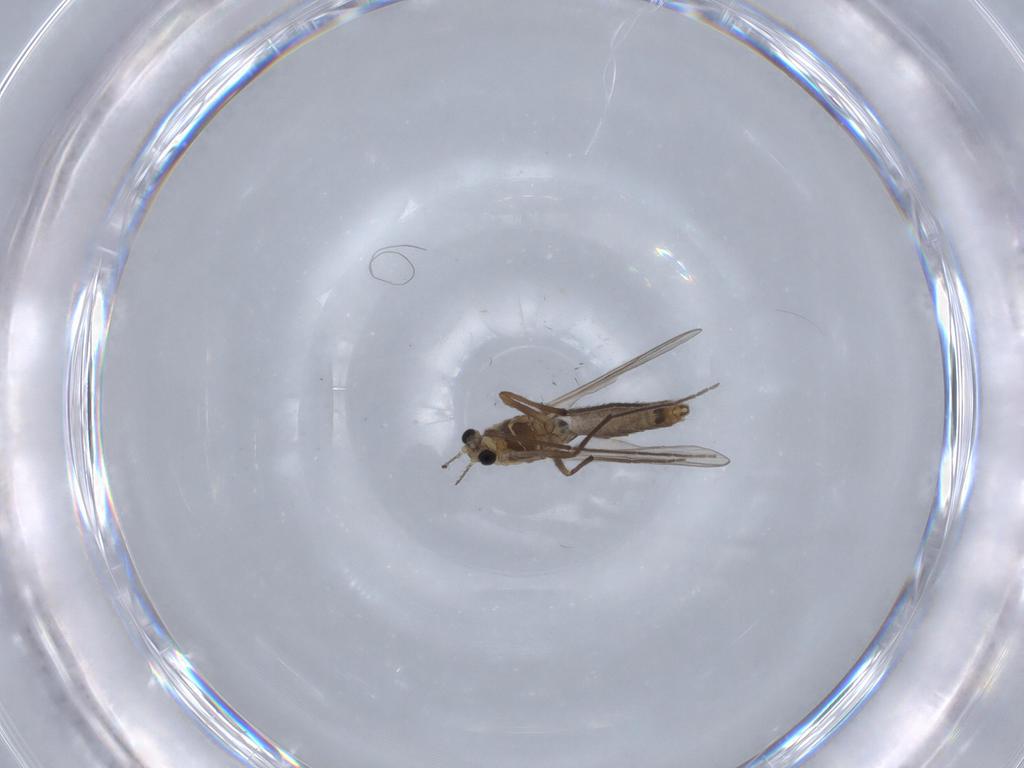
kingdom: Animalia
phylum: Arthropoda
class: Insecta
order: Diptera
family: Chironomidae
